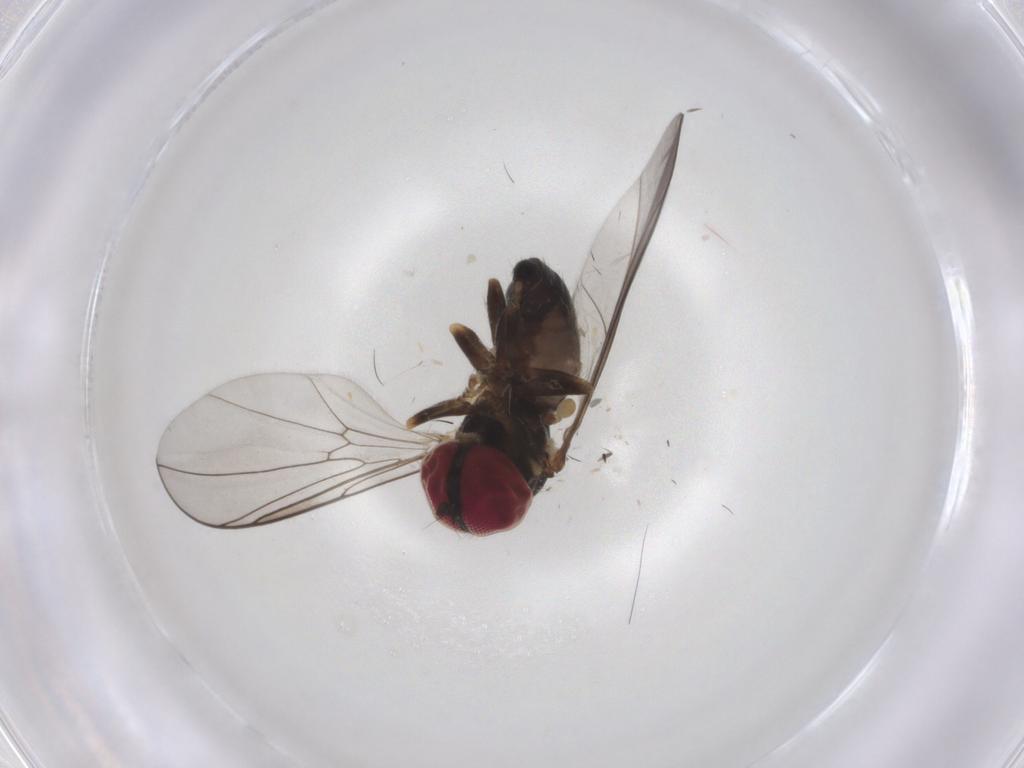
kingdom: Animalia
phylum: Arthropoda
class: Insecta
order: Diptera
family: Pipunculidae
